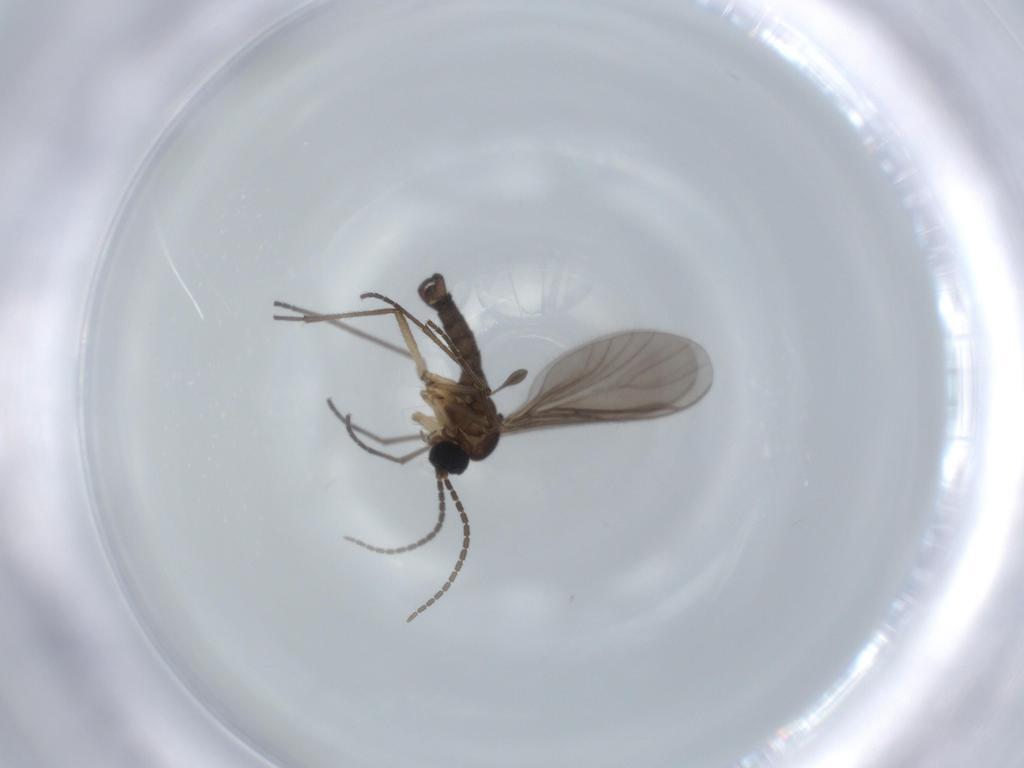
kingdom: Animalia
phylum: Arthropoda
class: Insecta
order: Diptera
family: Sciaridae
